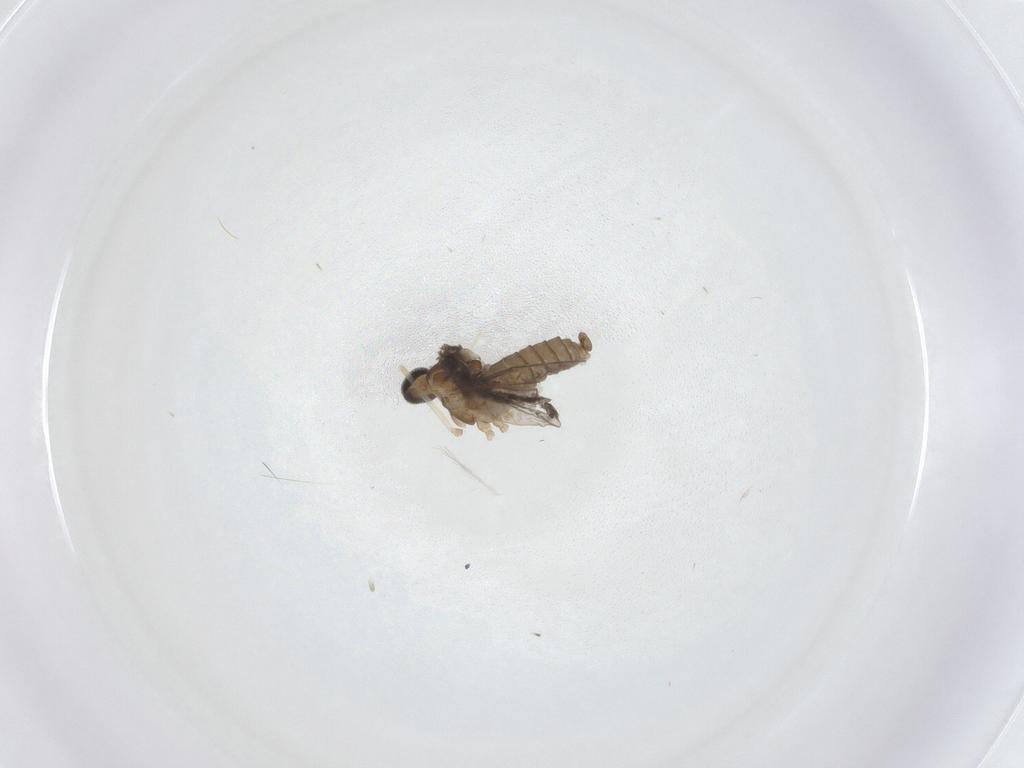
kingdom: Animalia
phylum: Arthropoda
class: Insecta
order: Diptera
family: Cecidomyiidae
